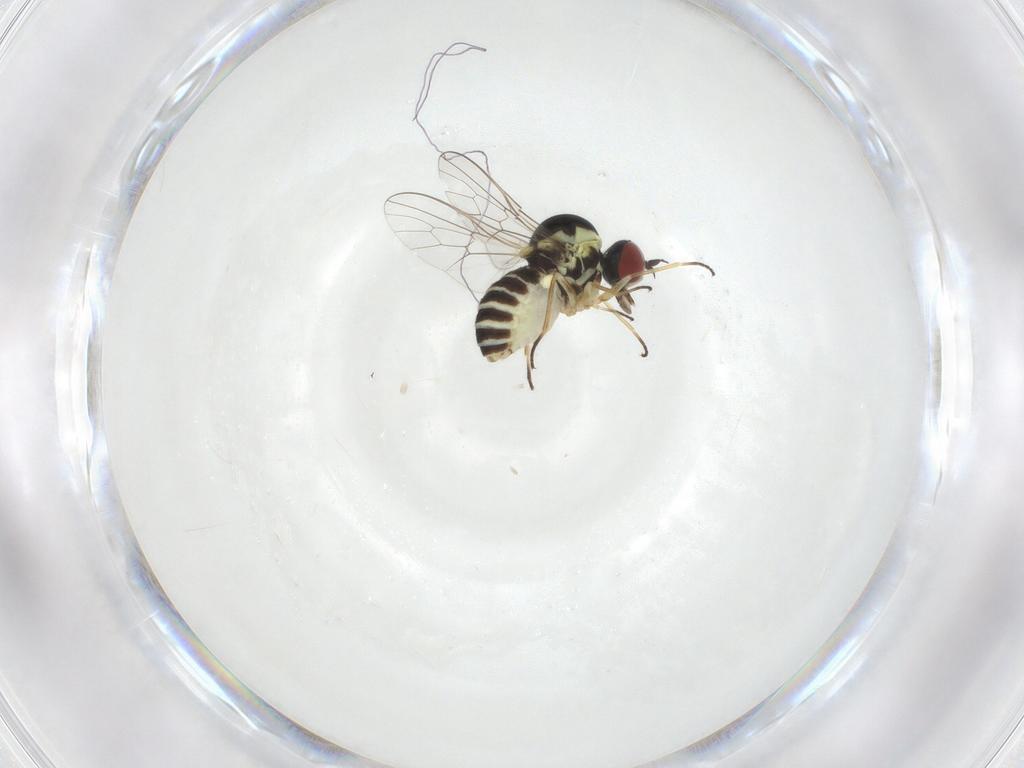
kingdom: Animalia
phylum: Arthropoda
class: Insecta
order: Diptera
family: Bombyliidae
